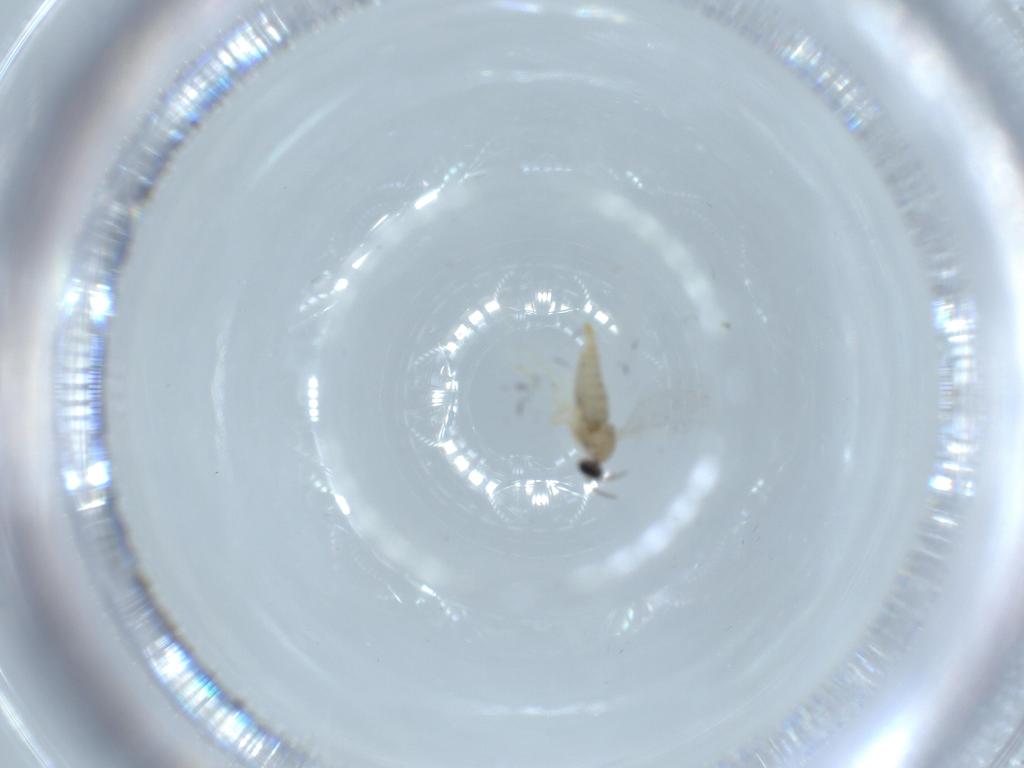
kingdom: Animalia
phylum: Arthropoda
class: Insecta
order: Diptera
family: Cecidomyiidae
